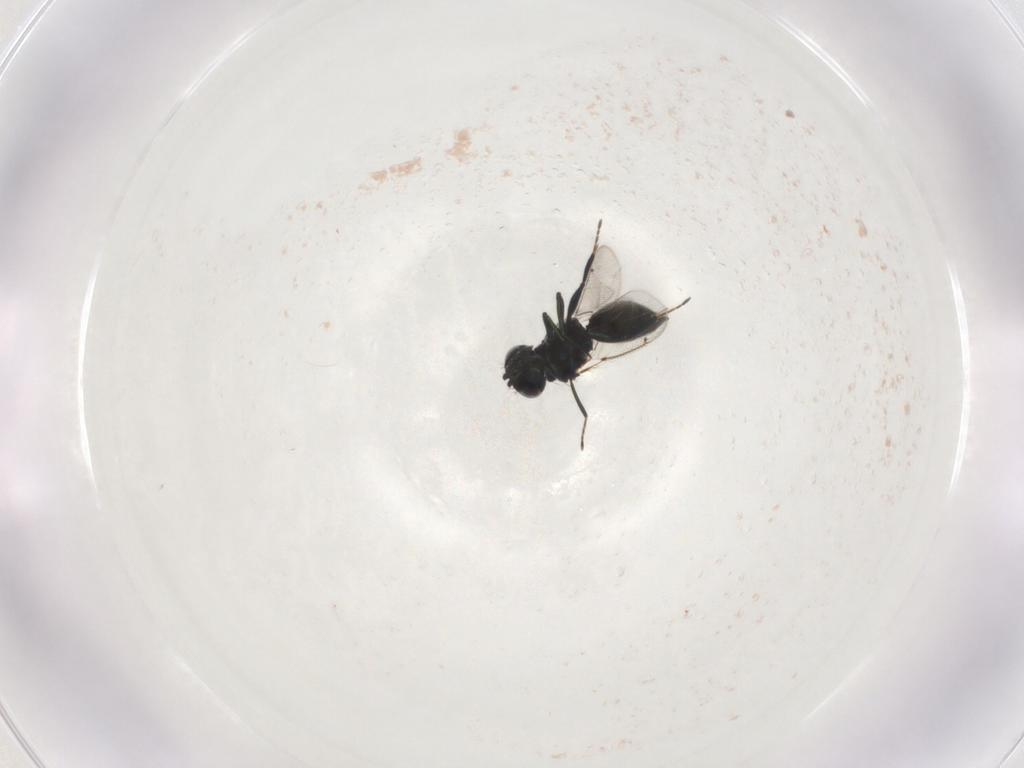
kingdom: Animalia
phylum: Arthropoda
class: Insecta
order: Hymenoptera
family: Eulophidae
